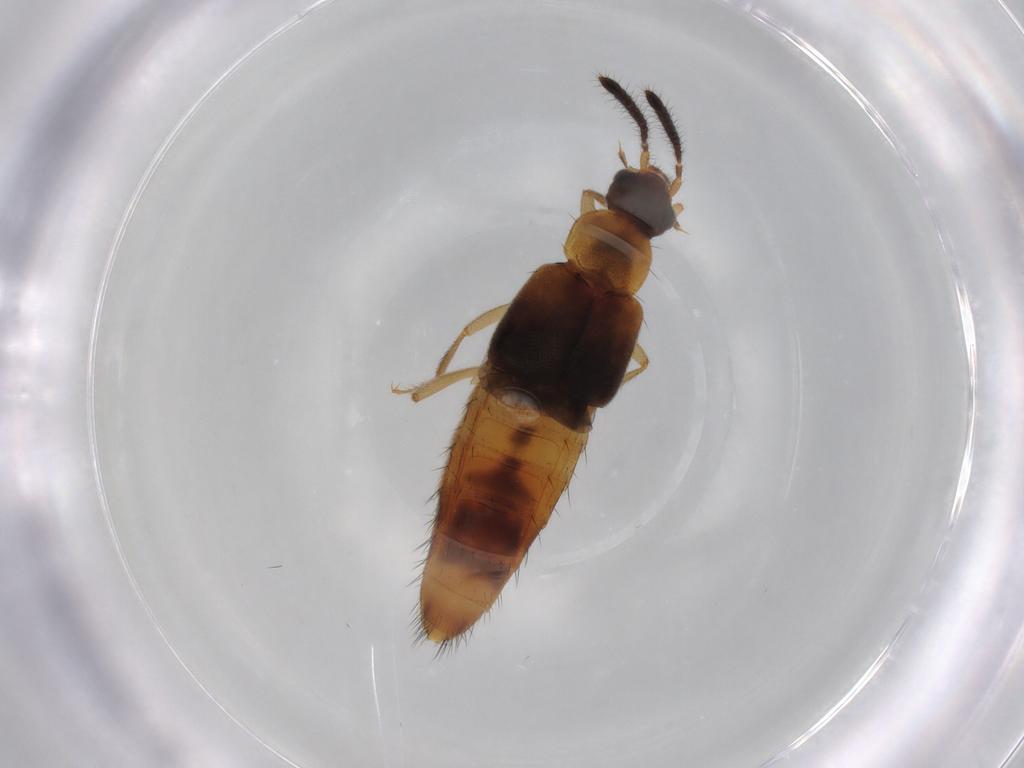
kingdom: Animalia
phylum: Arthropoda
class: Insecta
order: Coleoptera
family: Staphylinidae
